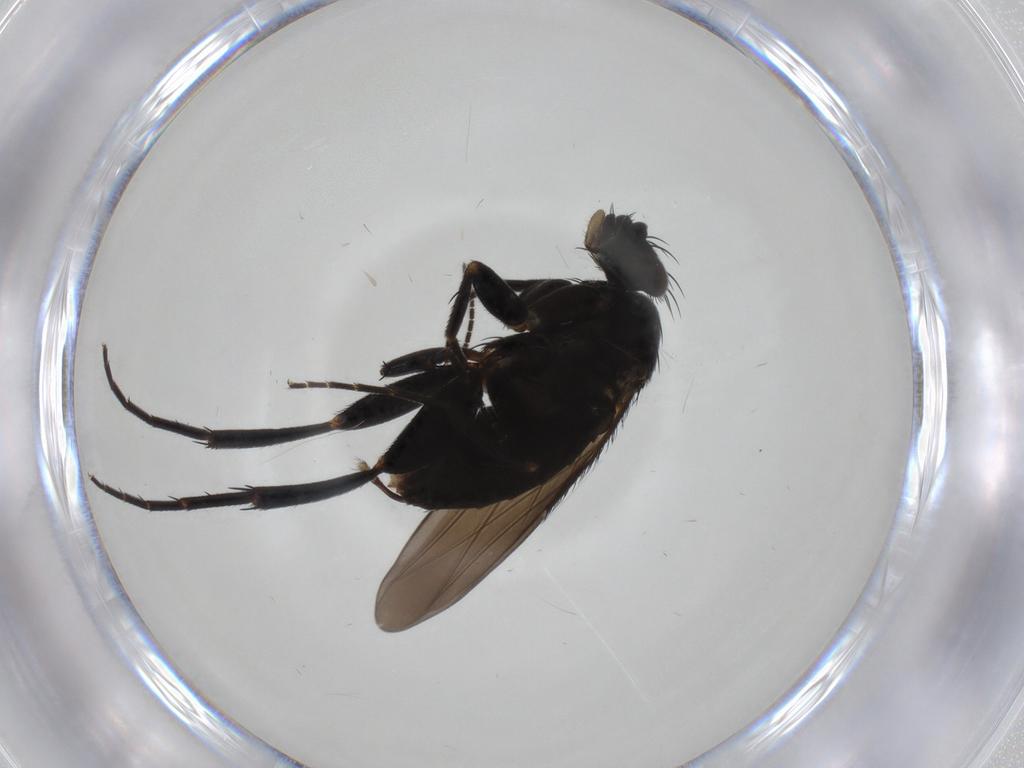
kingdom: Animalia
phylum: Arthropoda
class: Insecta
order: Diptera
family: Phoridae
